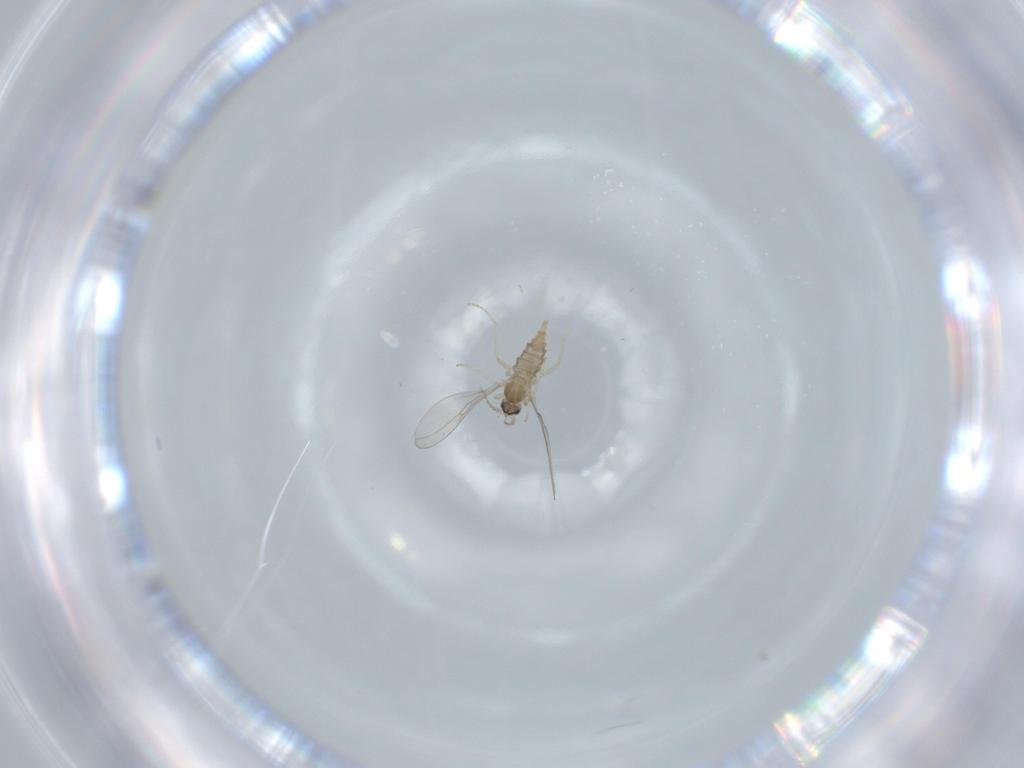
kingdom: Animalia
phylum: Arthropoda
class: Insecta
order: Diptera
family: Cecidomyiidae
